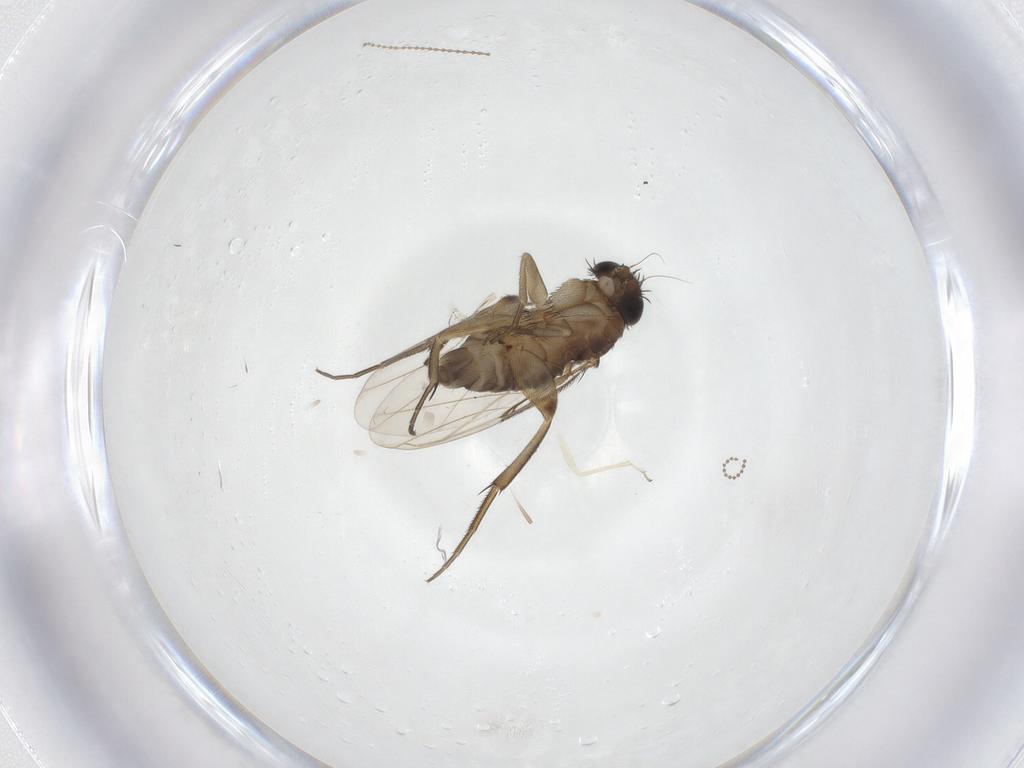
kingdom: Animalia
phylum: Arthropoda
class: Insecta
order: Diptera
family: Phoridae
